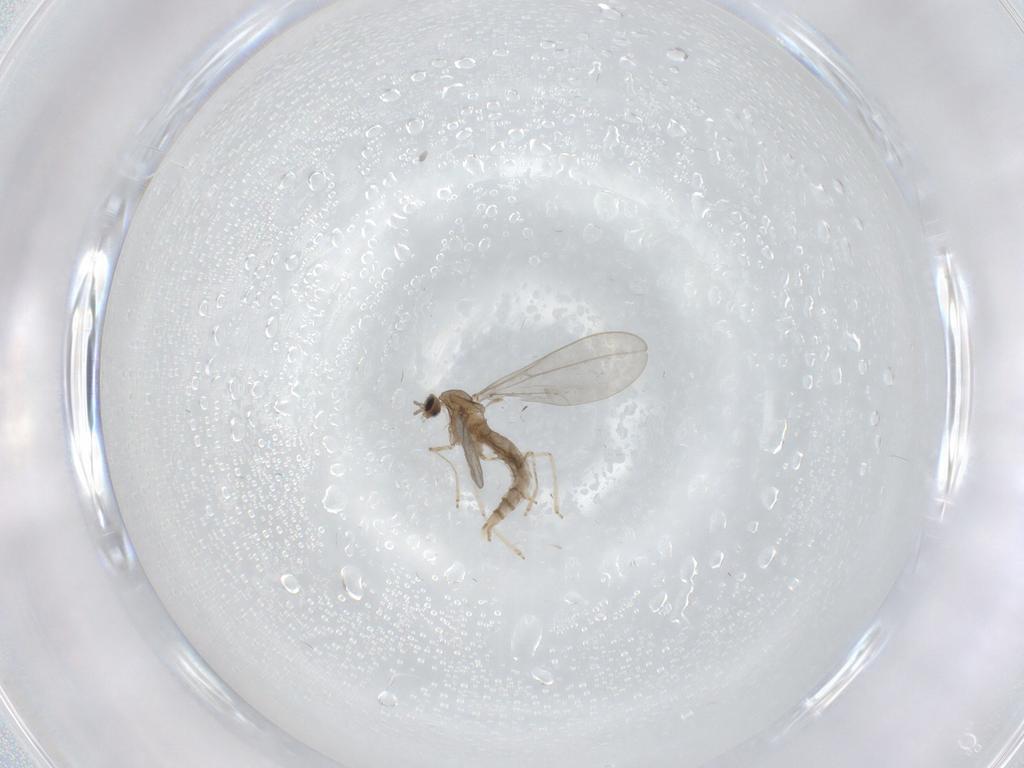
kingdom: Animalia
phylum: Arthropoda
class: Insecta
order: Diptera
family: Cecidomyiidae
